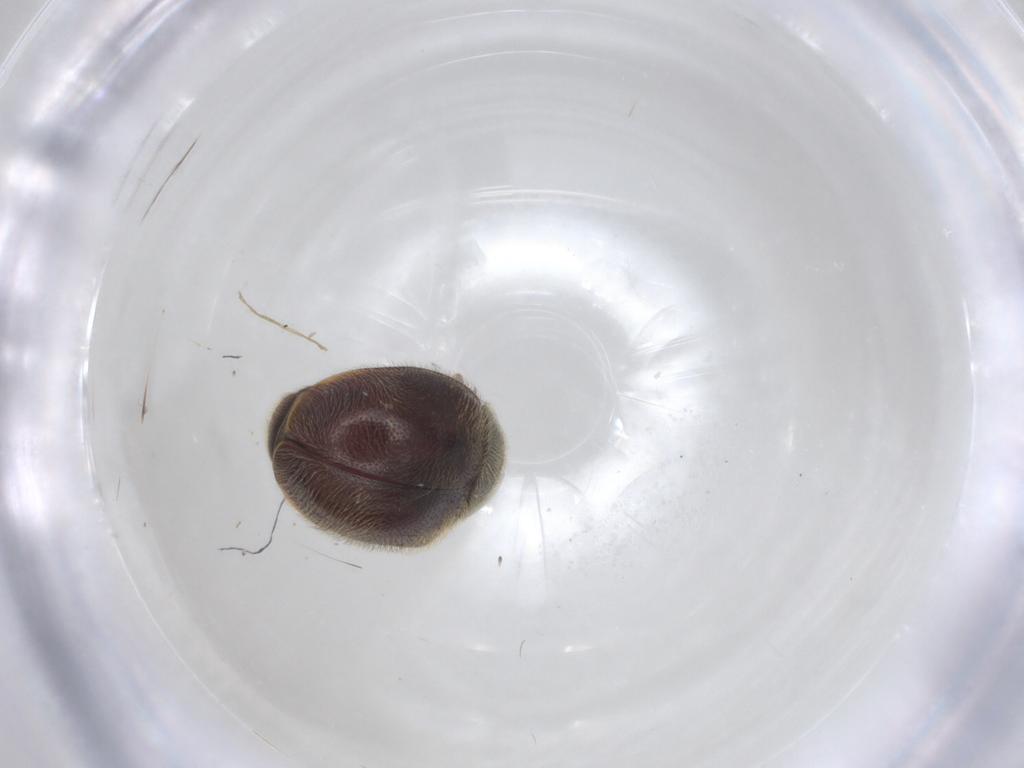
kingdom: Animalia
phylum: Arthropoda
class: Insecta
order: Coleoptera
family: Coccinellidae
